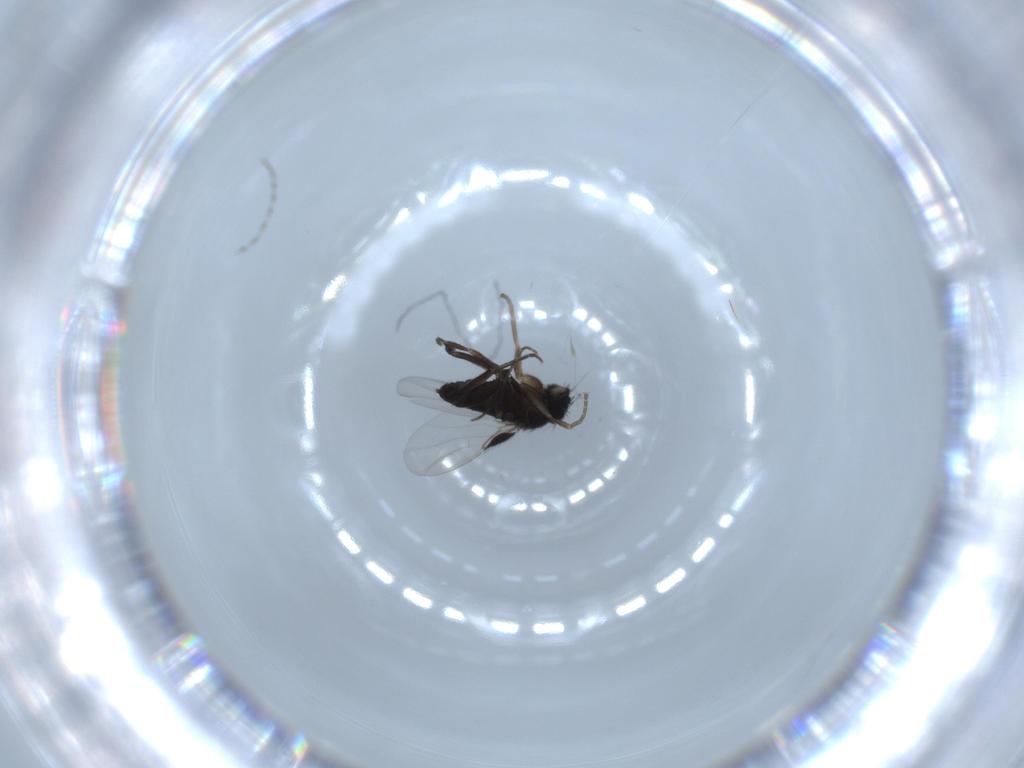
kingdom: Animalia
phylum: Arthropoda
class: Insecta
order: Diptera
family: Phoridae
